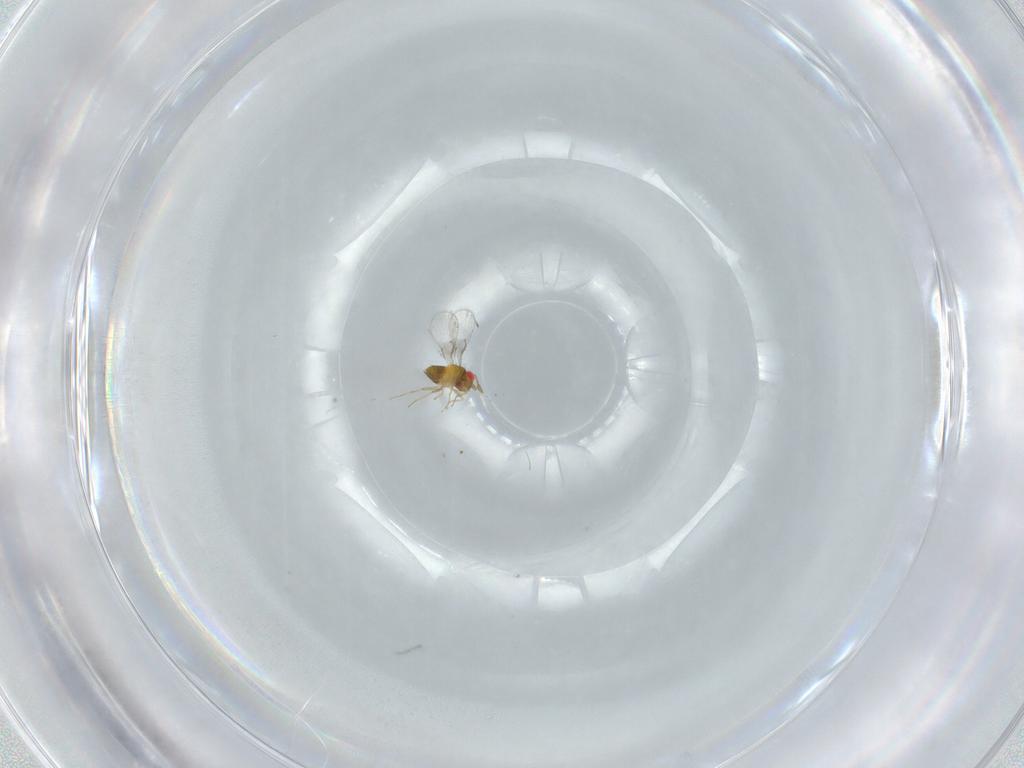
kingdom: Animalia
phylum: Arthropoda
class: Insecta
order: Hymenoptera
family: Trichogrammatidae
